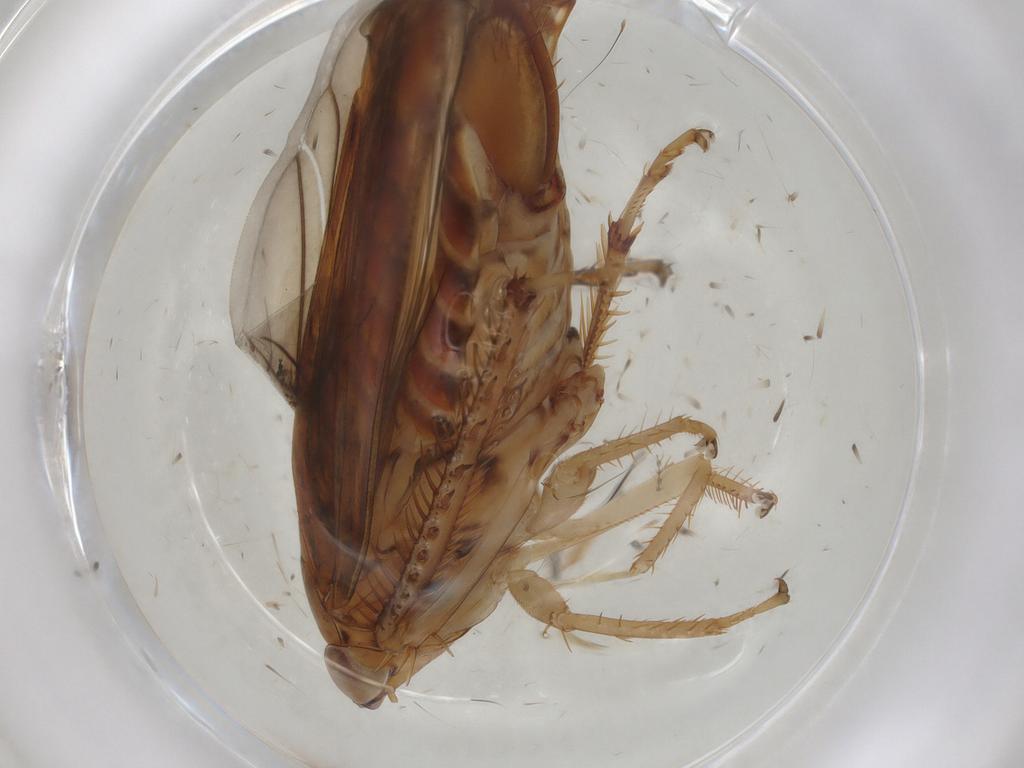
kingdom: Animalia
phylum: Arthropoda
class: Insecta
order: Hemiptera
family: Cicadellidae
